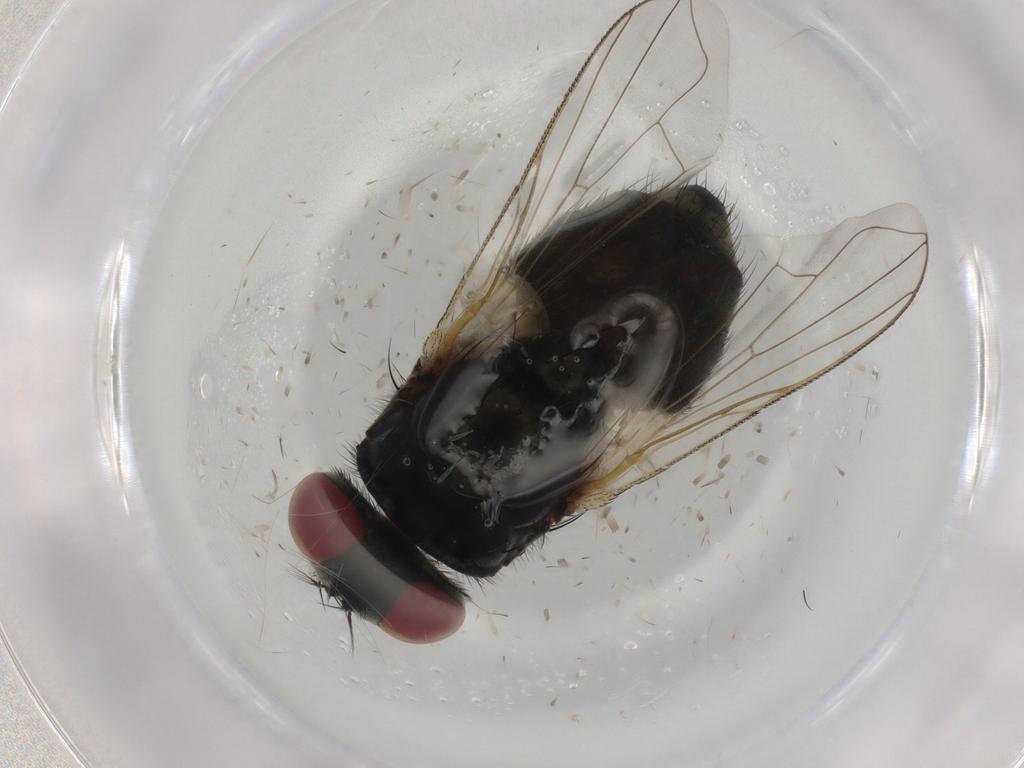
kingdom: Animalia
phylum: Arthropoda
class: Insecta
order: Diptera
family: Muscidae
